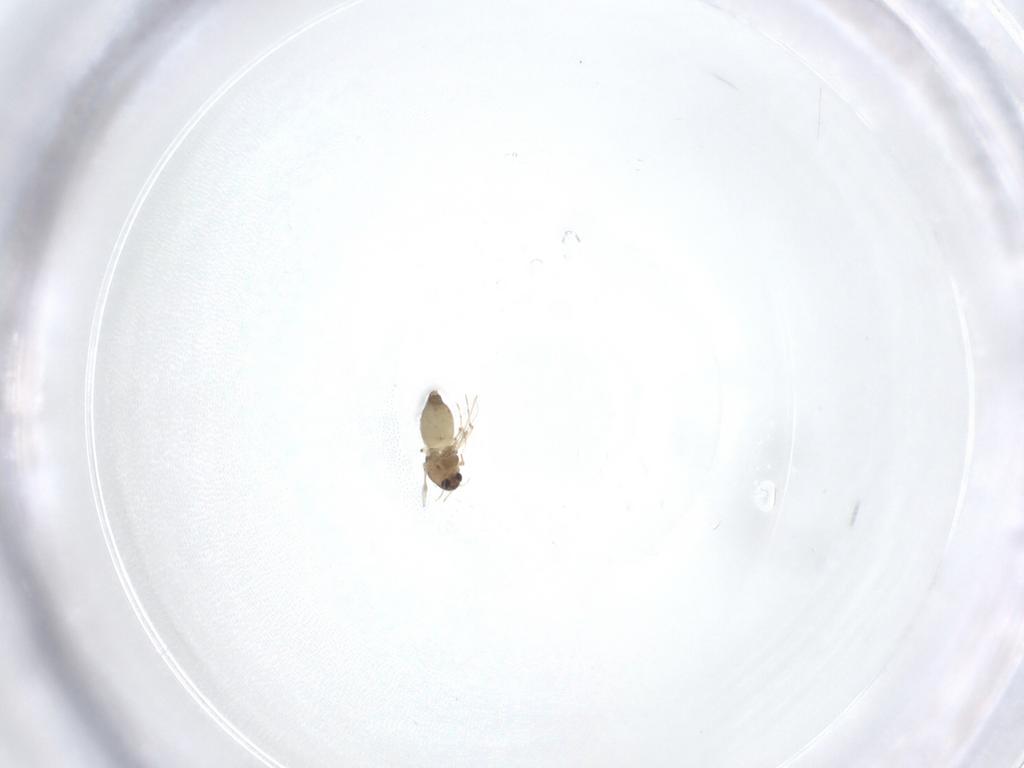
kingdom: Animalia
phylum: Arthropoda
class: Insecta
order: Diptera
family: Chironomidae
